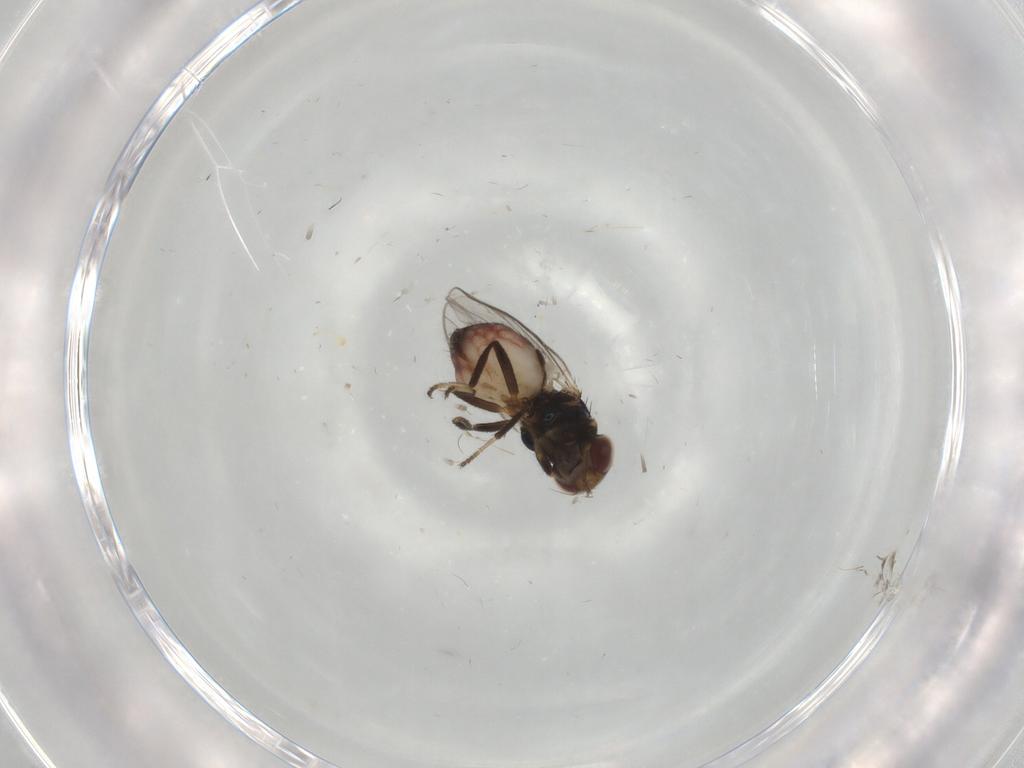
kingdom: Animalia
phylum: Arthropoda
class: Insecta
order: Diptera
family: Chloropidae
